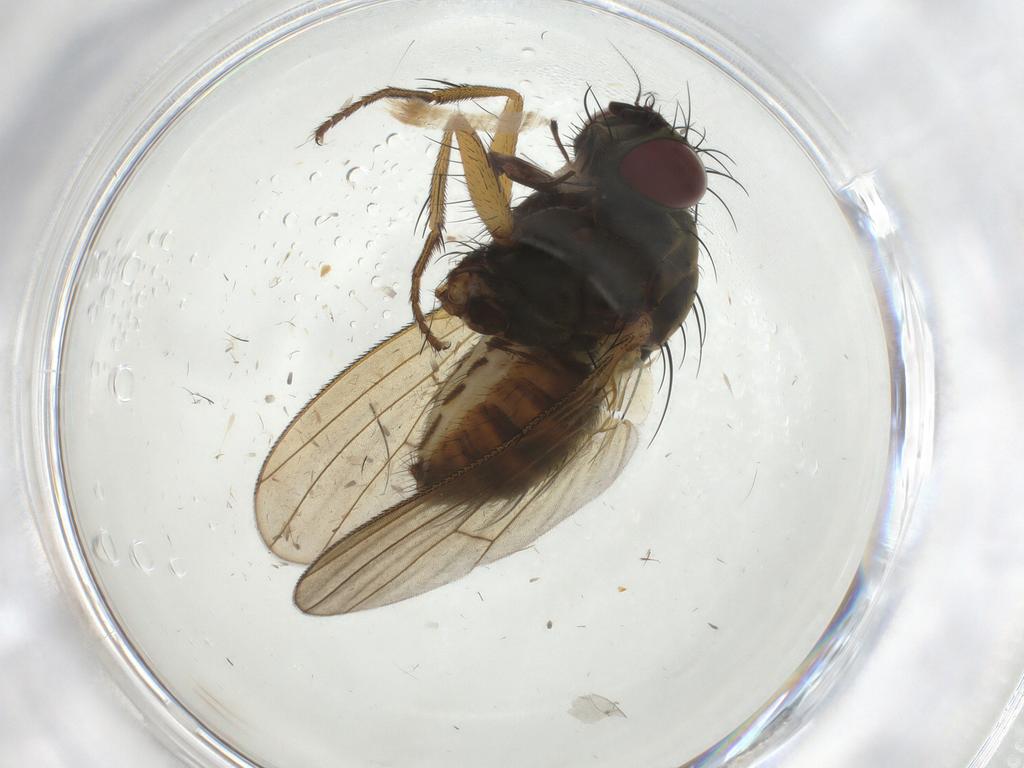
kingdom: Animalia
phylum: Arthropoda
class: Insecta
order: Diptera
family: Muscidae
